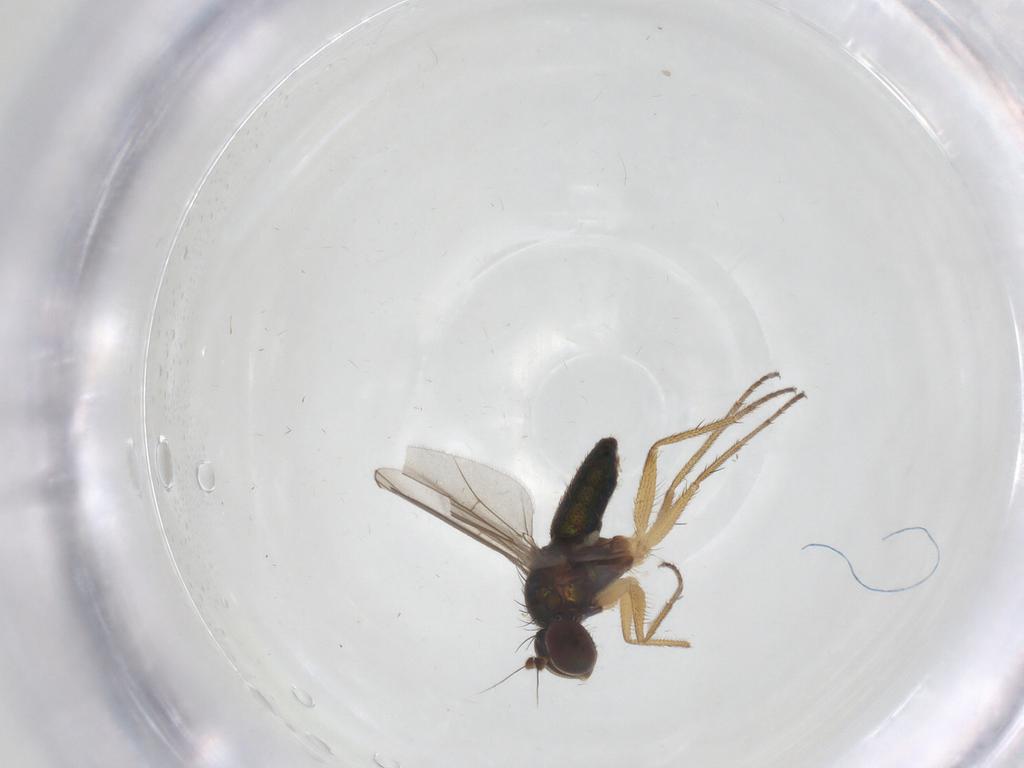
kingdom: Animalia
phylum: Arthropoda
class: Insecta
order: Diptera
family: Cecidomyiidae
